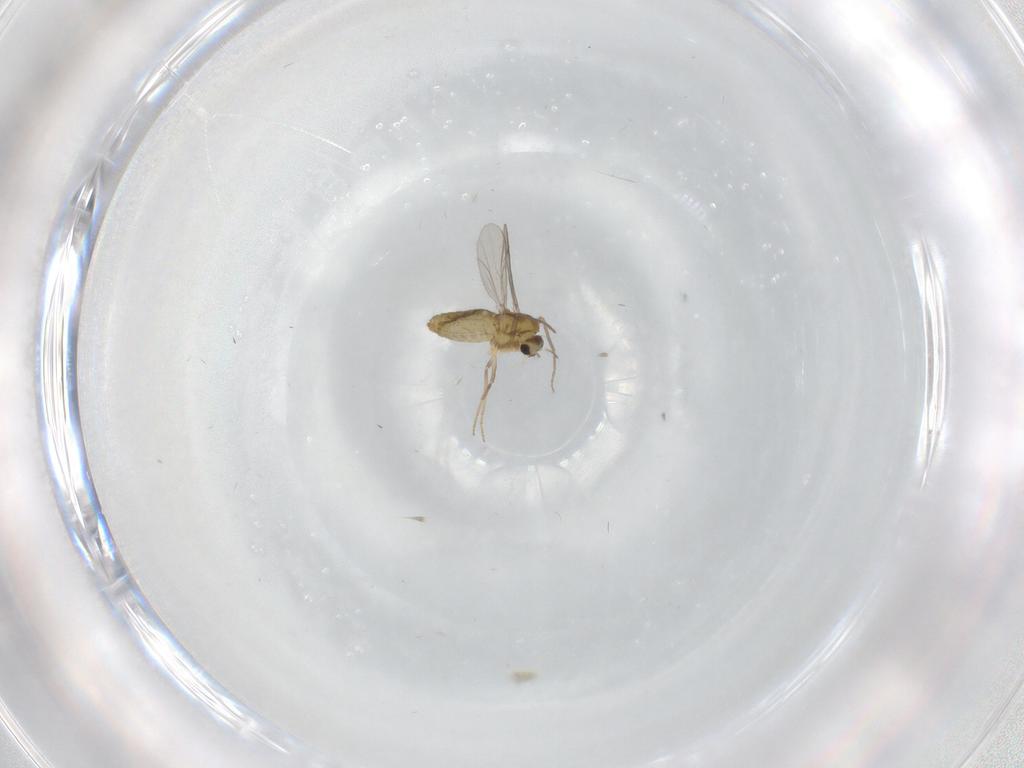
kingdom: Animalia
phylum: Arthropoda
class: Insecta
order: Diptera
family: Chironomidae
